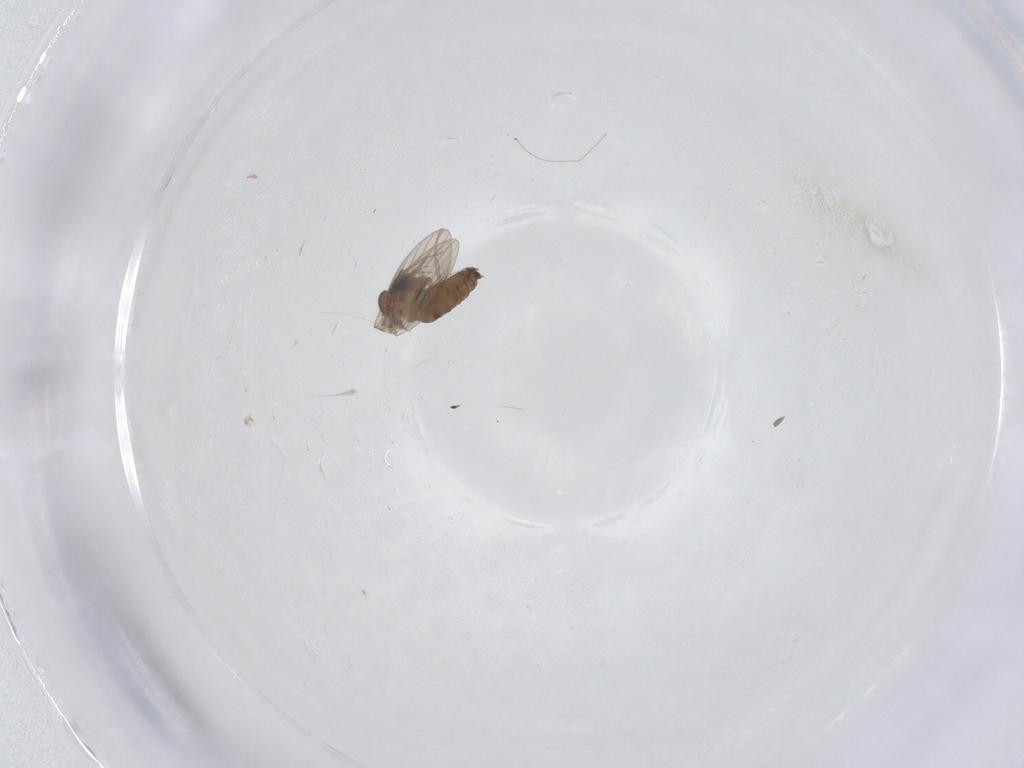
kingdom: Animalia
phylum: Arthropoda
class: Insecta
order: Diptera
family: Psychodidae
